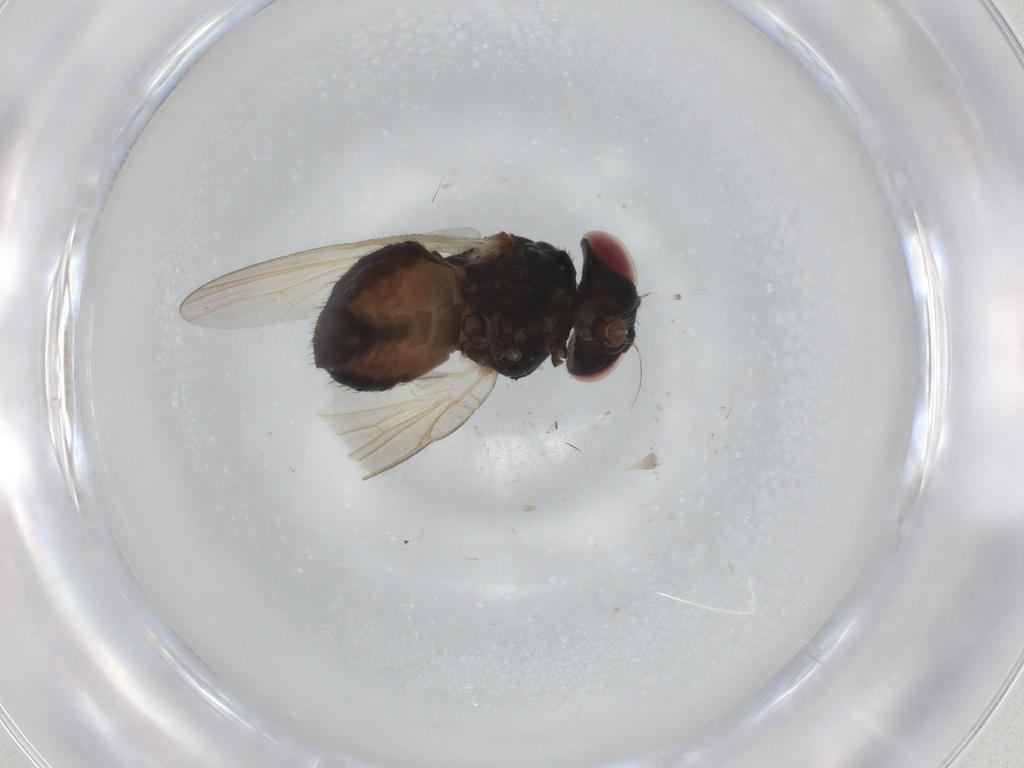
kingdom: Animalia
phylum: Arthropoda
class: Insecta
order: Diptera
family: Lonchaeidae
